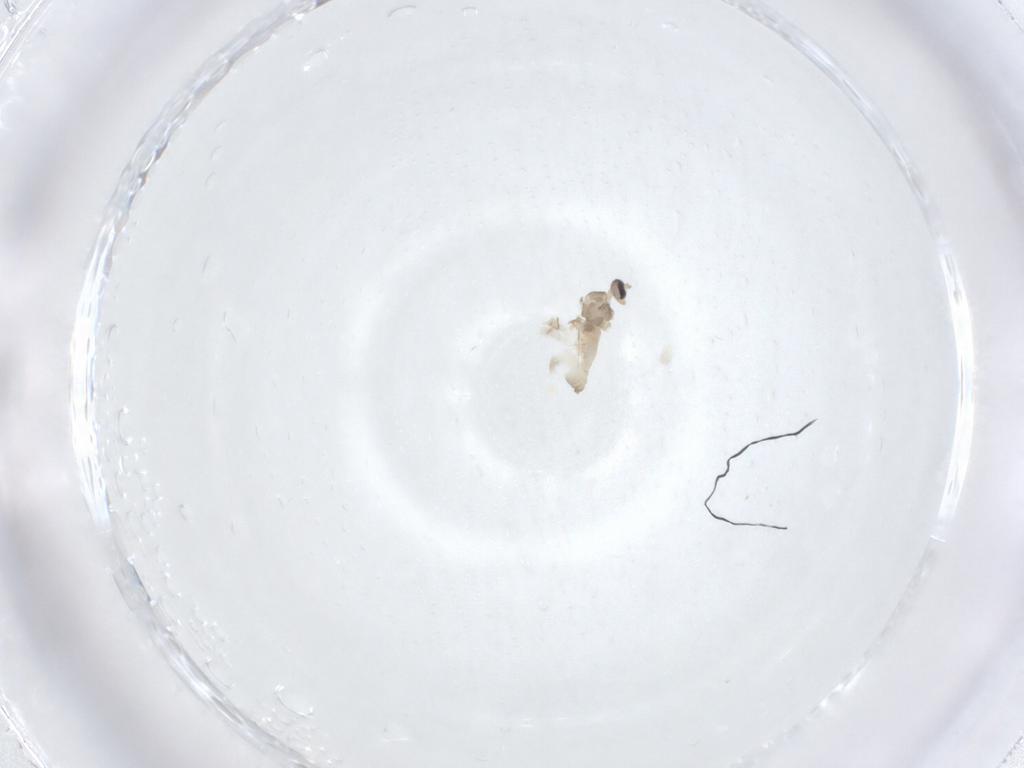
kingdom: Animalia
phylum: Arthropoda
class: Insecta
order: Diptera
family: Cecidomyiidae
